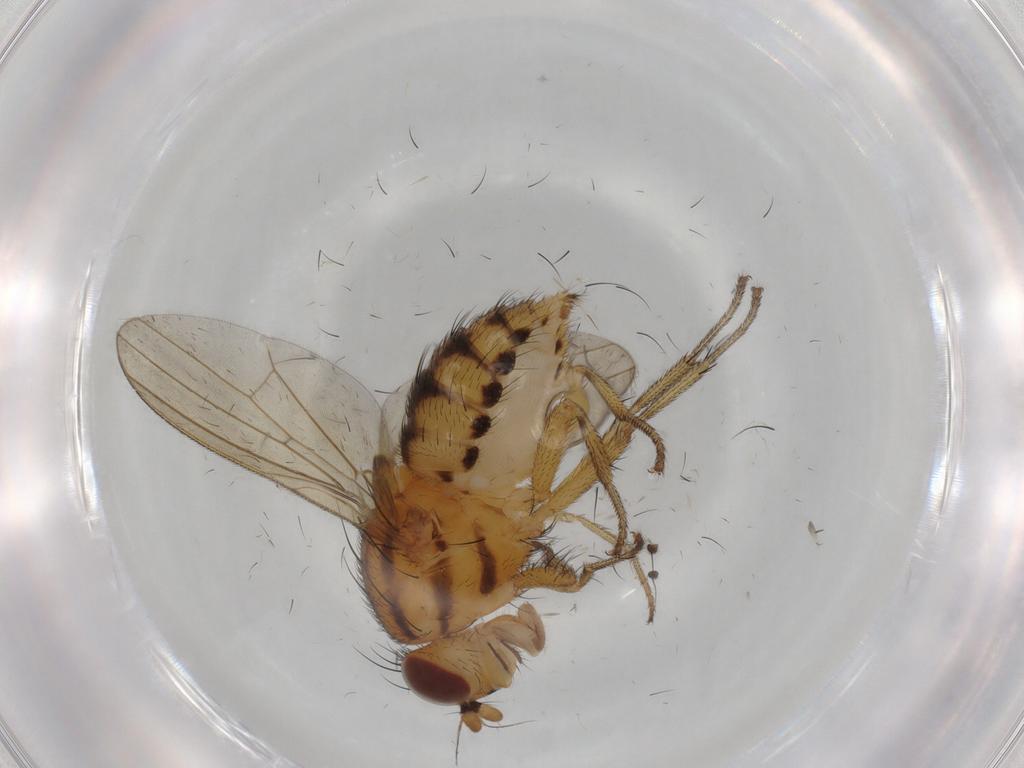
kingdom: Animalia
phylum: Arthropoda
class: Insecta
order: Diptera
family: Dolichopodidae
